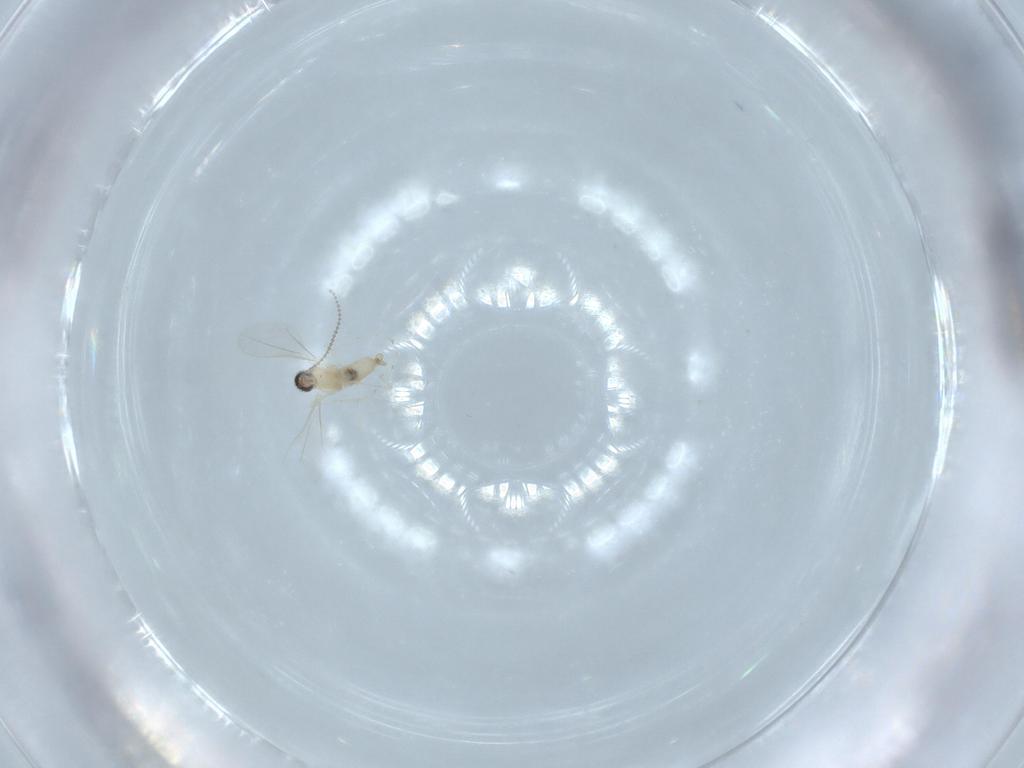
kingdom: Animalia
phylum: Arthropoda
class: Insecta
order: Diptera
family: Cecidomyiidae
